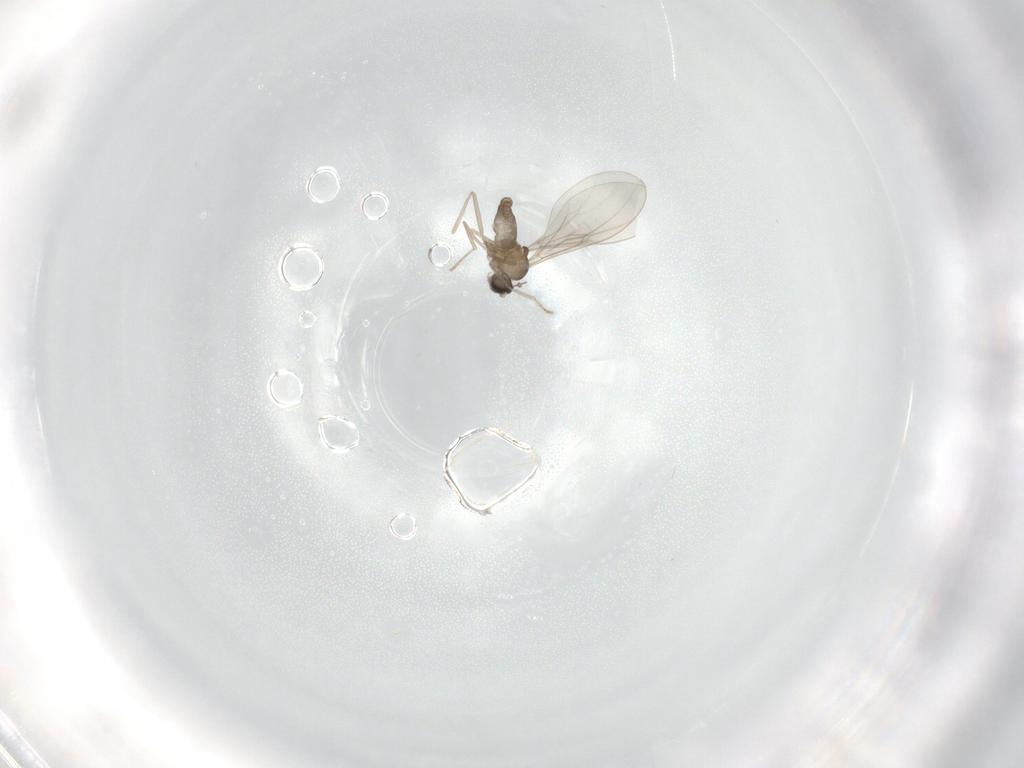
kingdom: Animalia
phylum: Arthropoda
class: Insecta
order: Diptera
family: Cecidomyiidae
